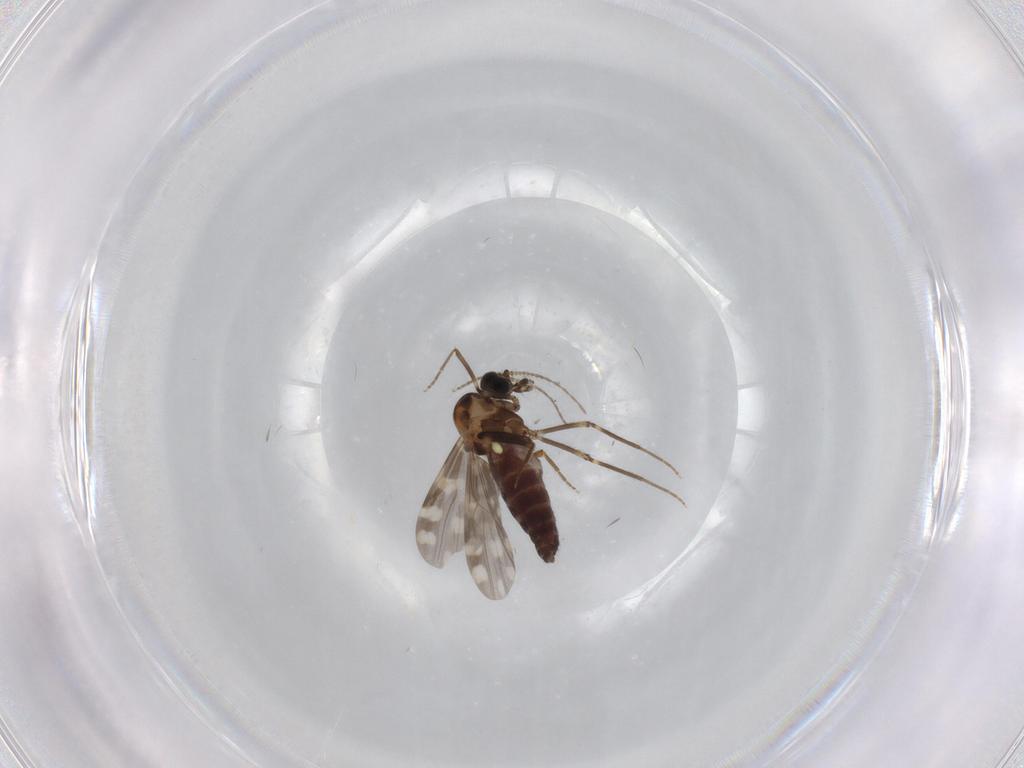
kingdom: Animalia
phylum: Arthropoda
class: Insecta
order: Diptera
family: Ceratopogonidae
